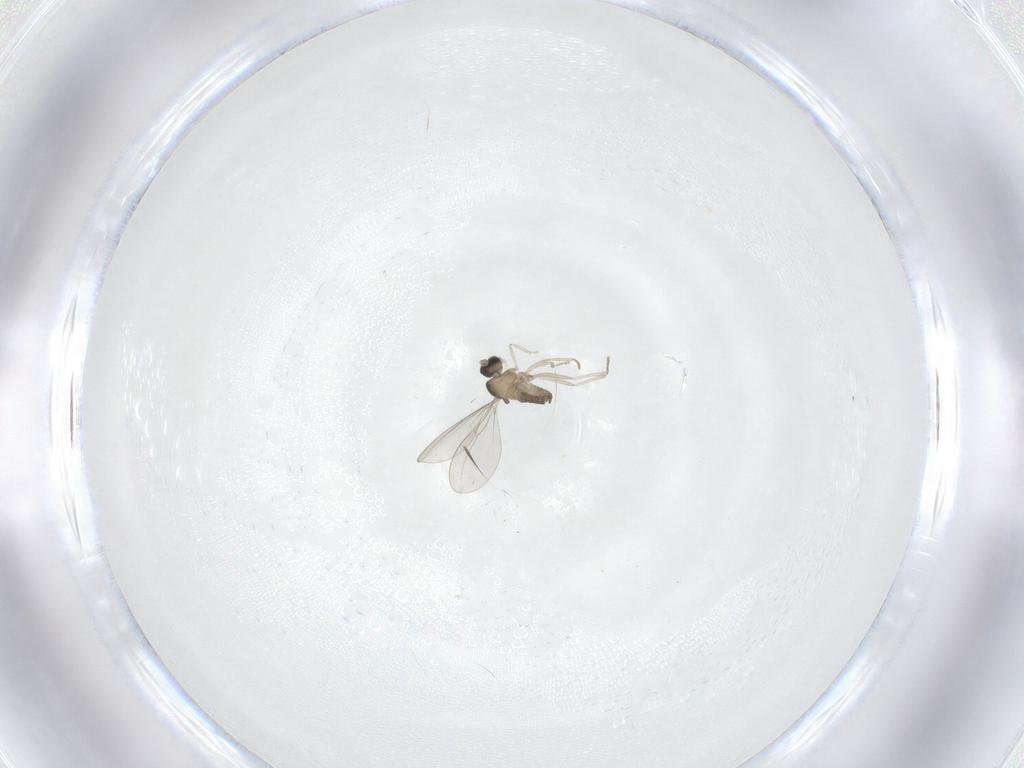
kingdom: Animalia
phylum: Arthropoda
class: Insecta
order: Diptera
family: Cecidomyiidae
